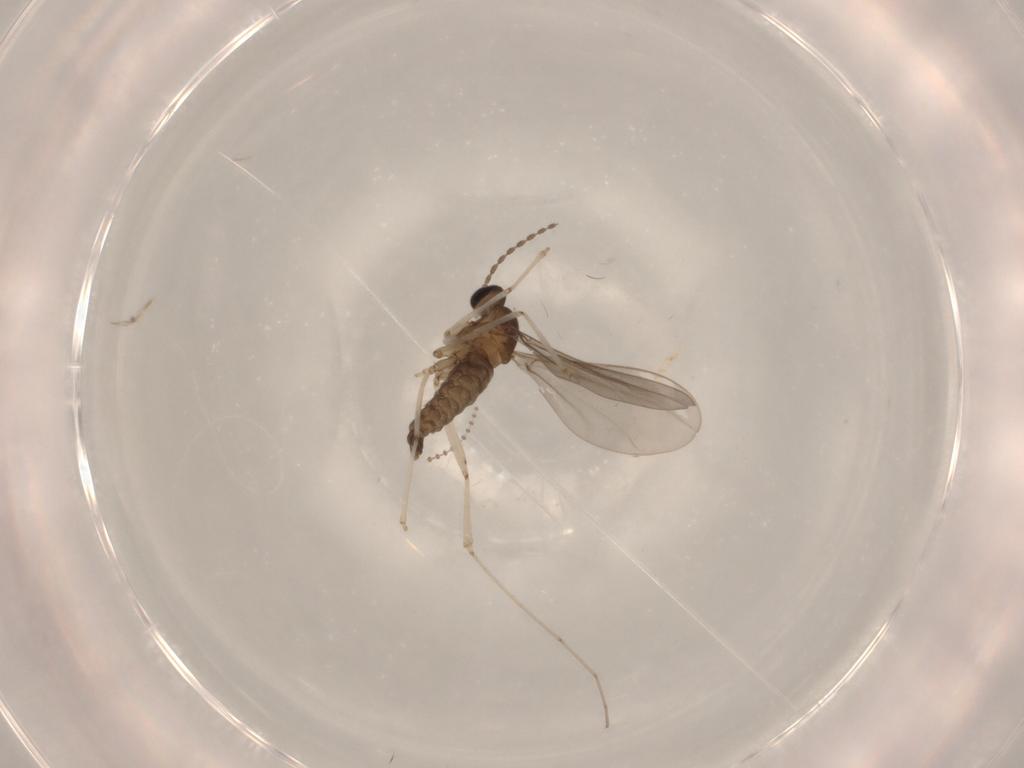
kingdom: Animalia
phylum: Arthropoda
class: Insecta
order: Diptera
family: Cecidomyiidae
